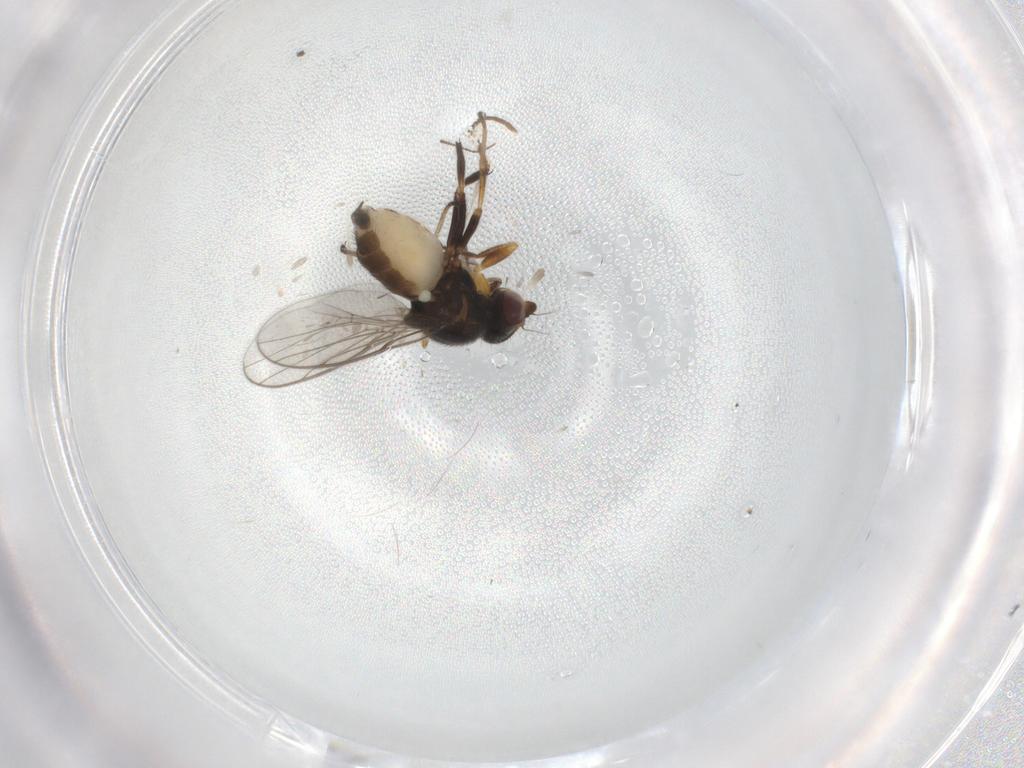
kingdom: Animalia
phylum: Arthropoda
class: Insecta
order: Diptera
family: Chloropidae
